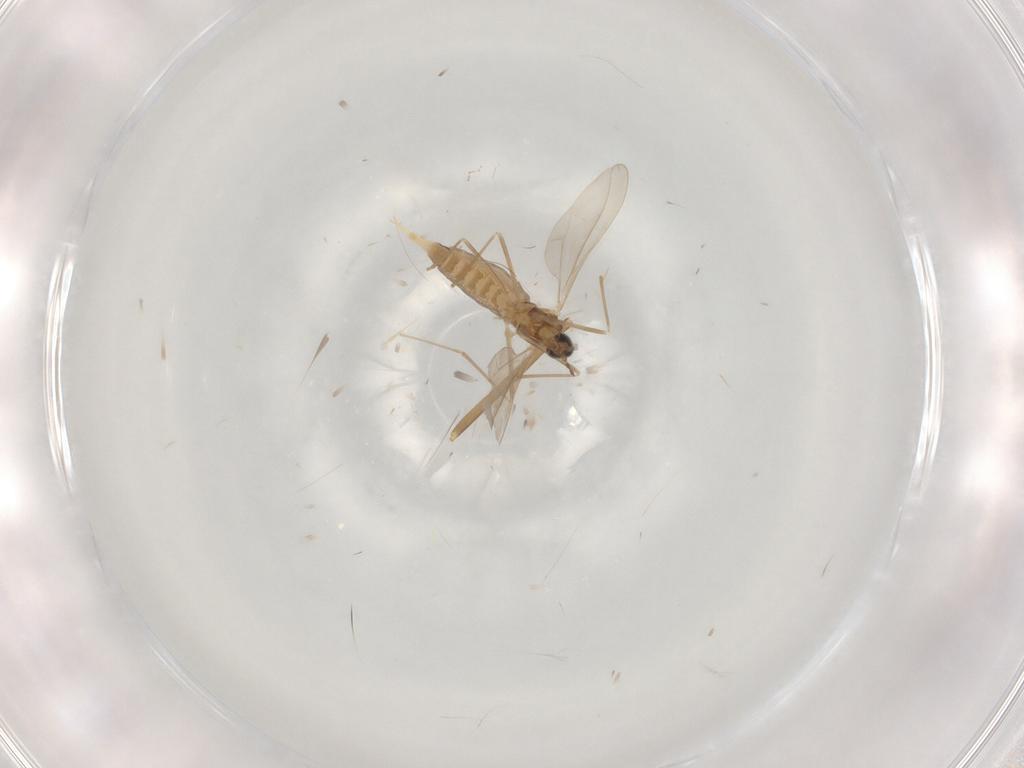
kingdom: Animalia
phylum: Arthropoda
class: Insecta
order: Diptera
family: Cecidomyiidae
